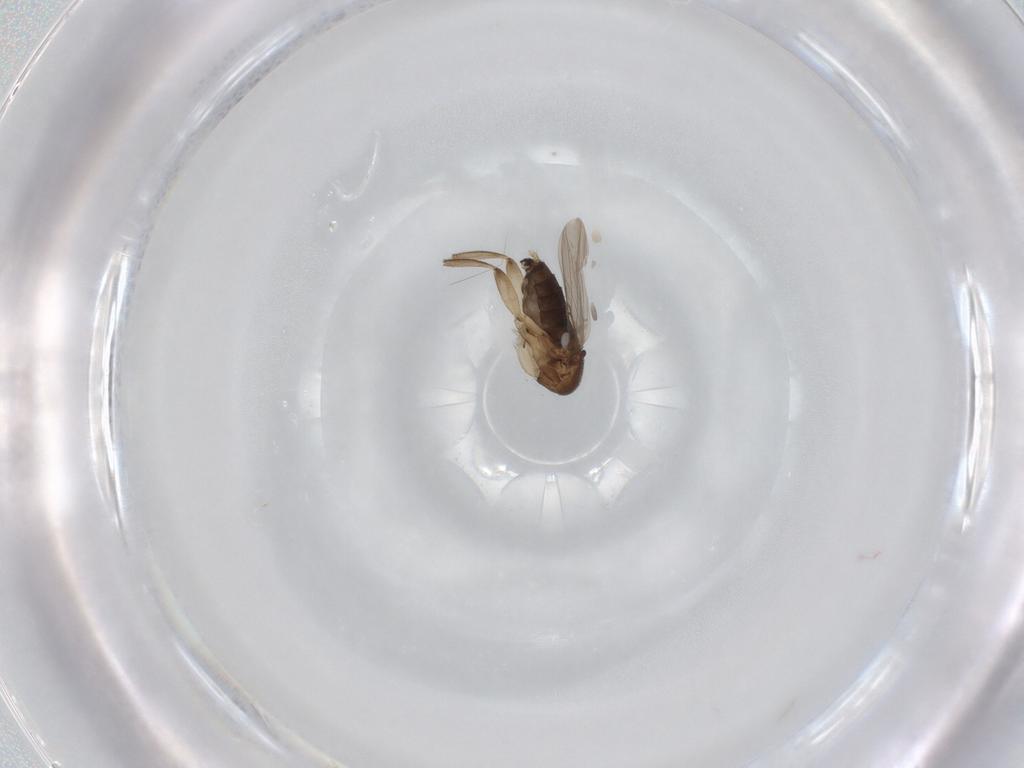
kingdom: Animalia
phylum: Arthropoda
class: Insecta
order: Diptera
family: Phoridae
